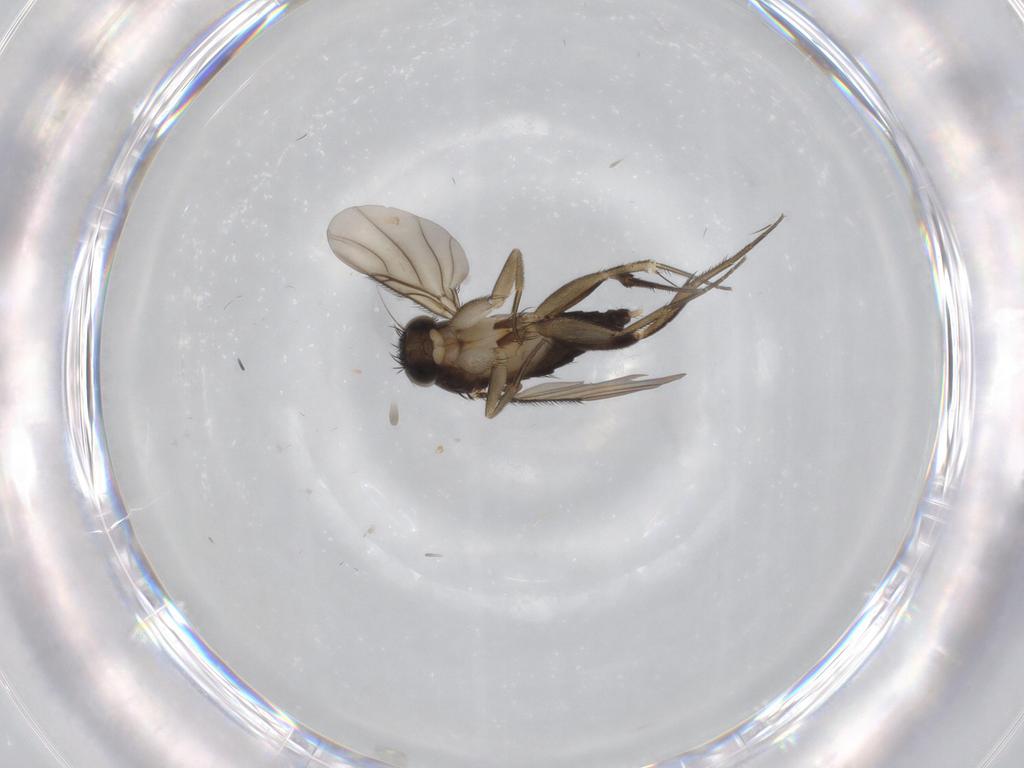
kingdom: Animalia
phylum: Arthropoda
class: Insecta
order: Diptera
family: Phoridae
